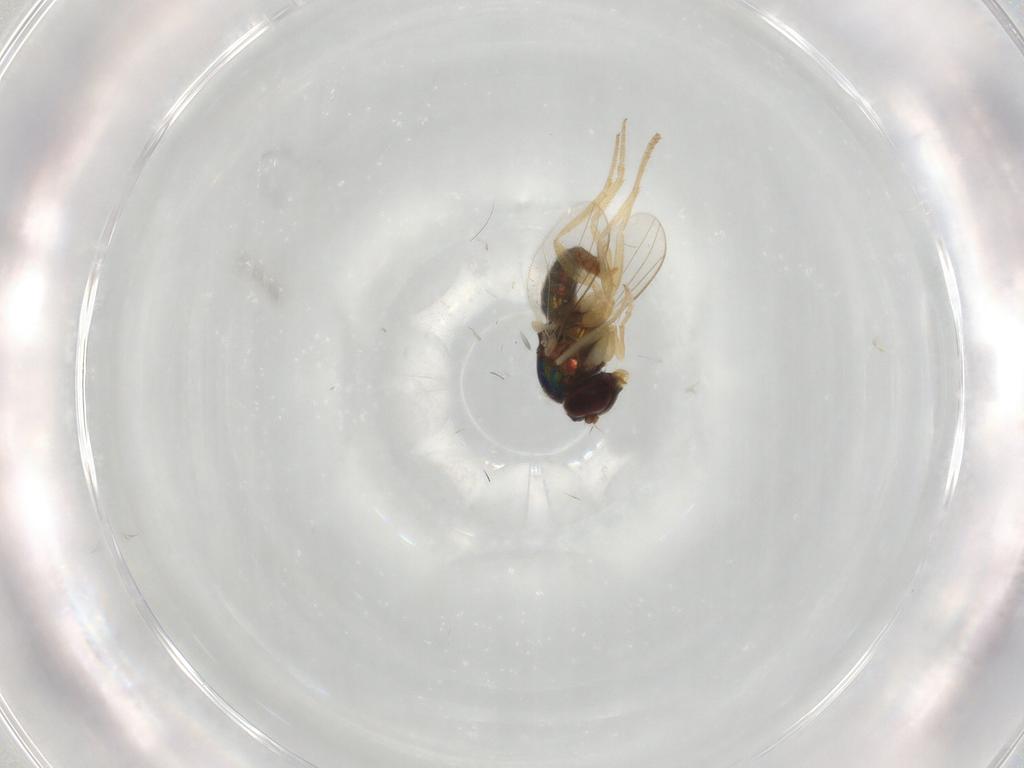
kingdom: Animalia
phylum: Arthropoda
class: Insecta
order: Diptera
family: Dolichopodidae
